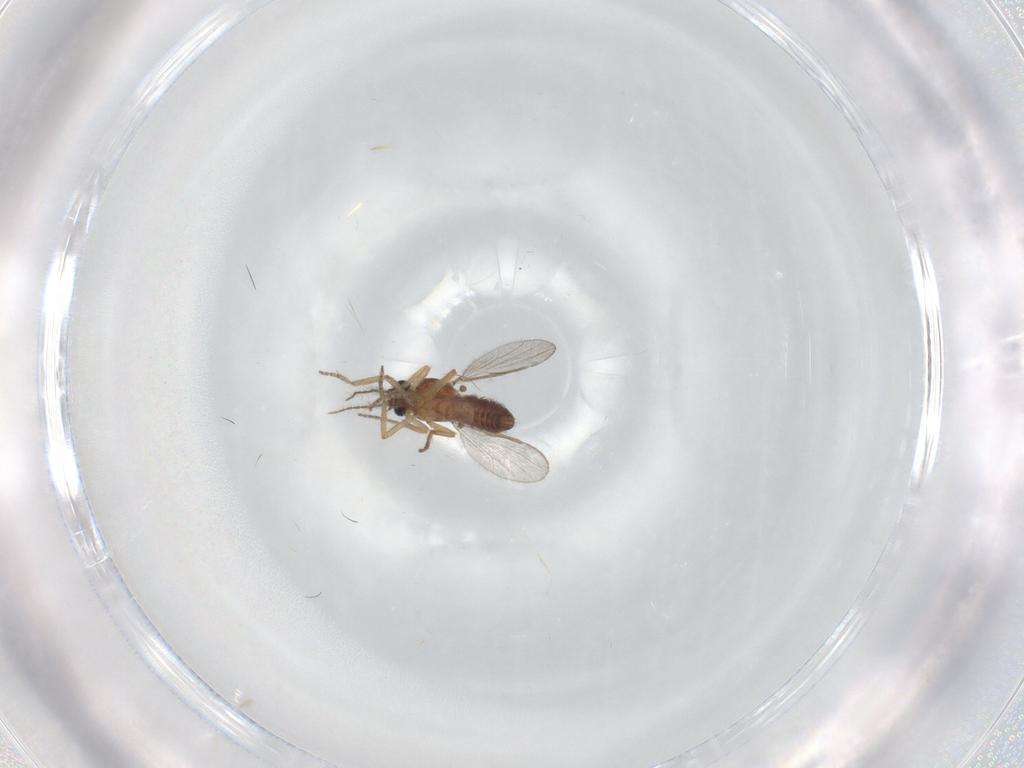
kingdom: Animalia
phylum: Arthropoda
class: Insecta
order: Diptera
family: Ceratopogonidae
